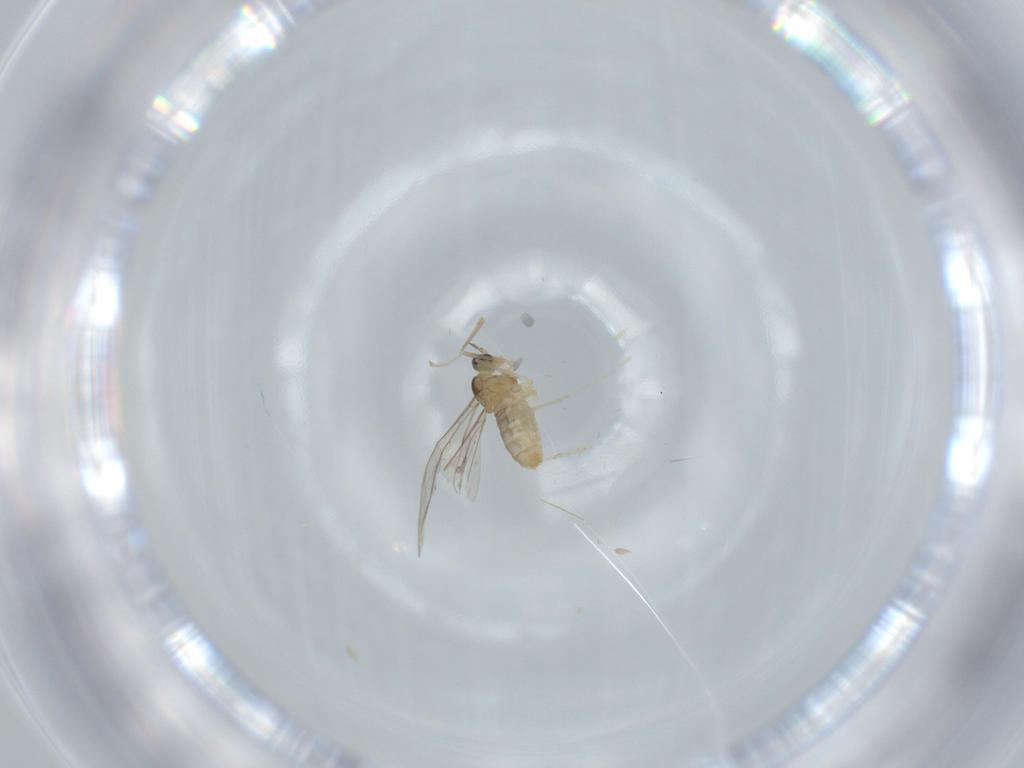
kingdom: Animalia
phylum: Arthropoda
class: Insecta
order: Diptera
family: Cecidomyiidae
